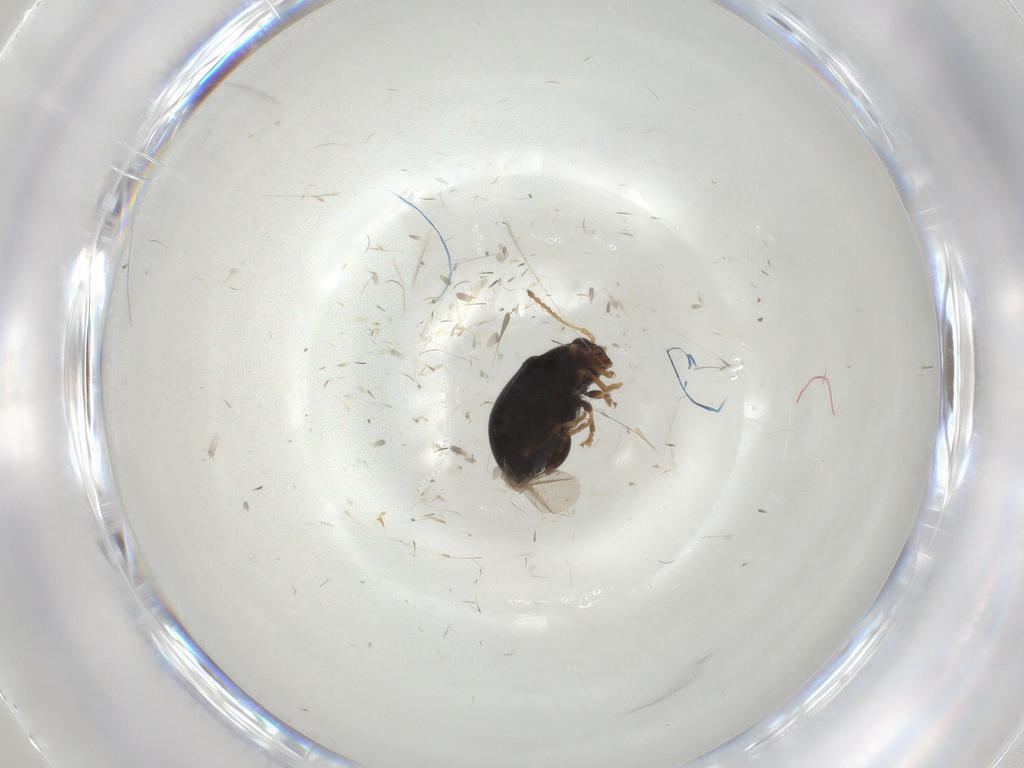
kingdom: Animalia
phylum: Arthropoda
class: Insecta
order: Coleoptera
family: Chrysomelidae
